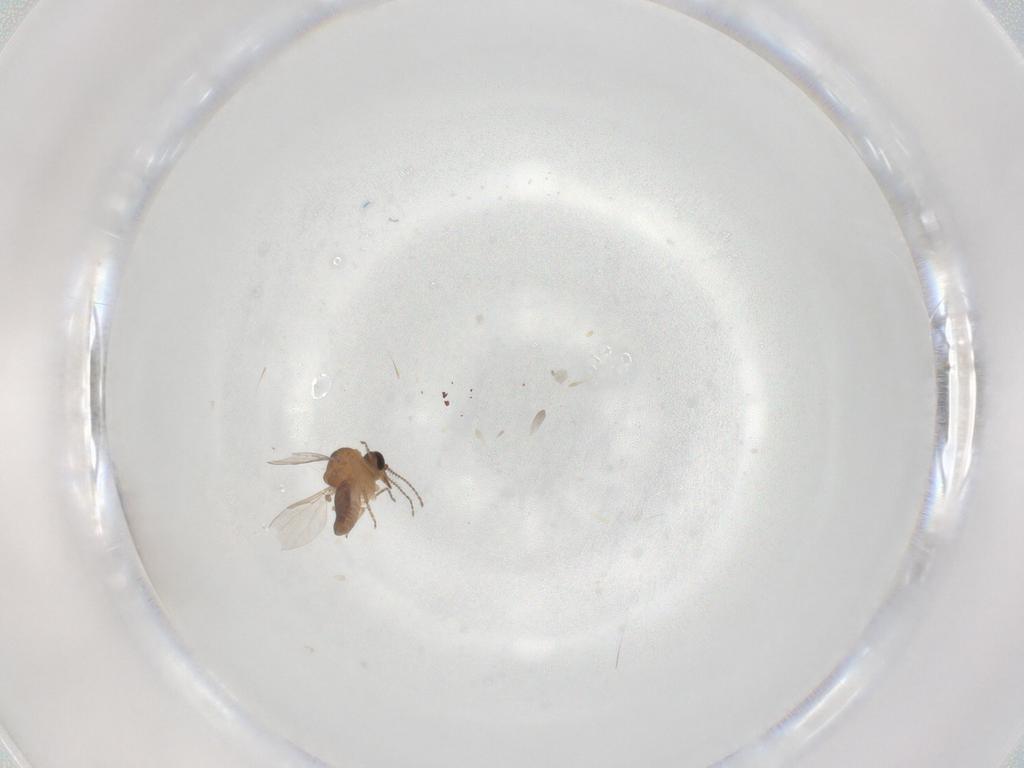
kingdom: Animalia
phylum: Arthropoda
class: Insecta
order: Diptera
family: Ceratopogonidae
